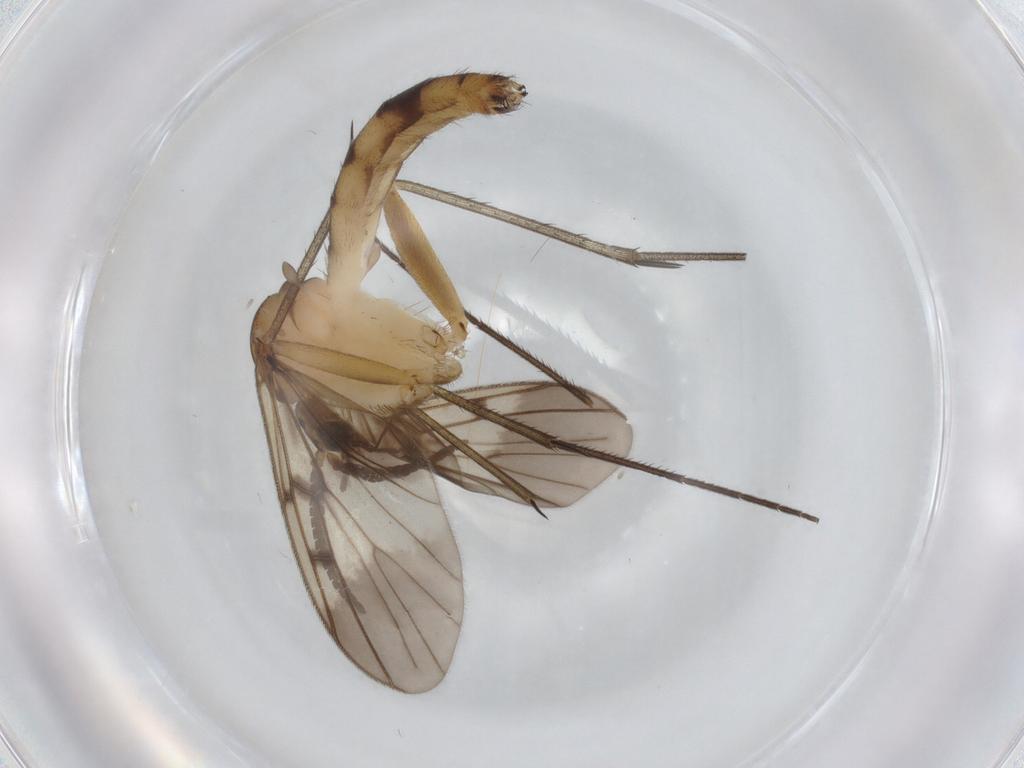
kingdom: Animalia
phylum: Arthropoda
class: Insecta
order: Diptera
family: Mycetophilidae
